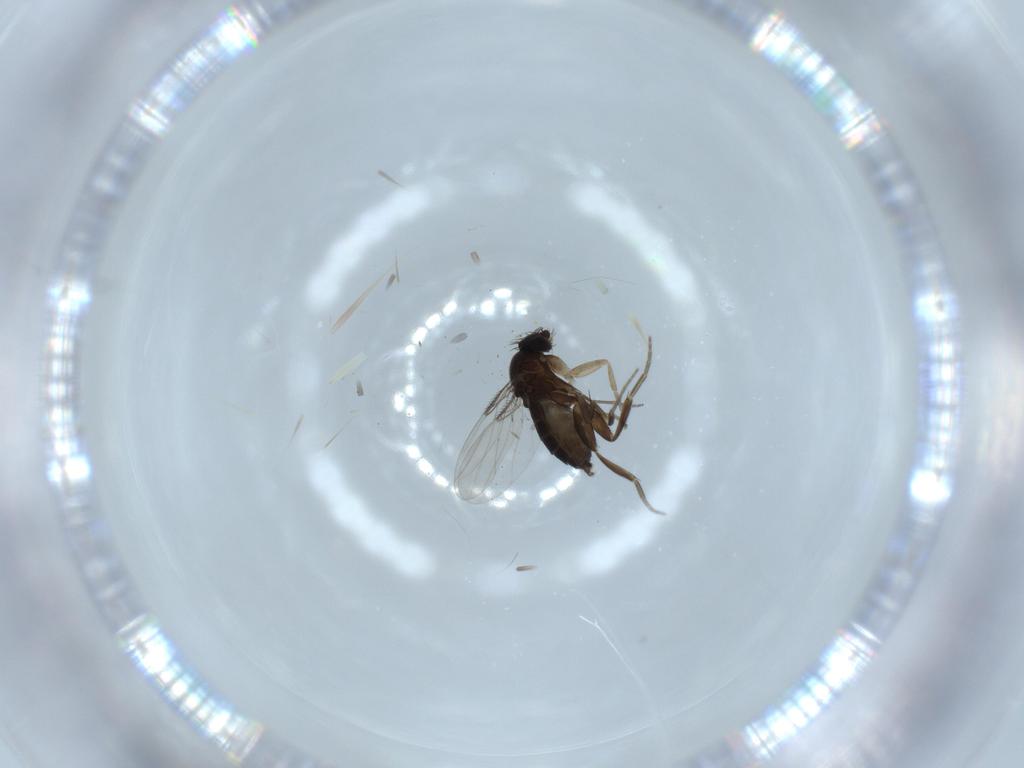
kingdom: Animalia
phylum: Arthropoda
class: Insecta
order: Diptera
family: Phoridae
